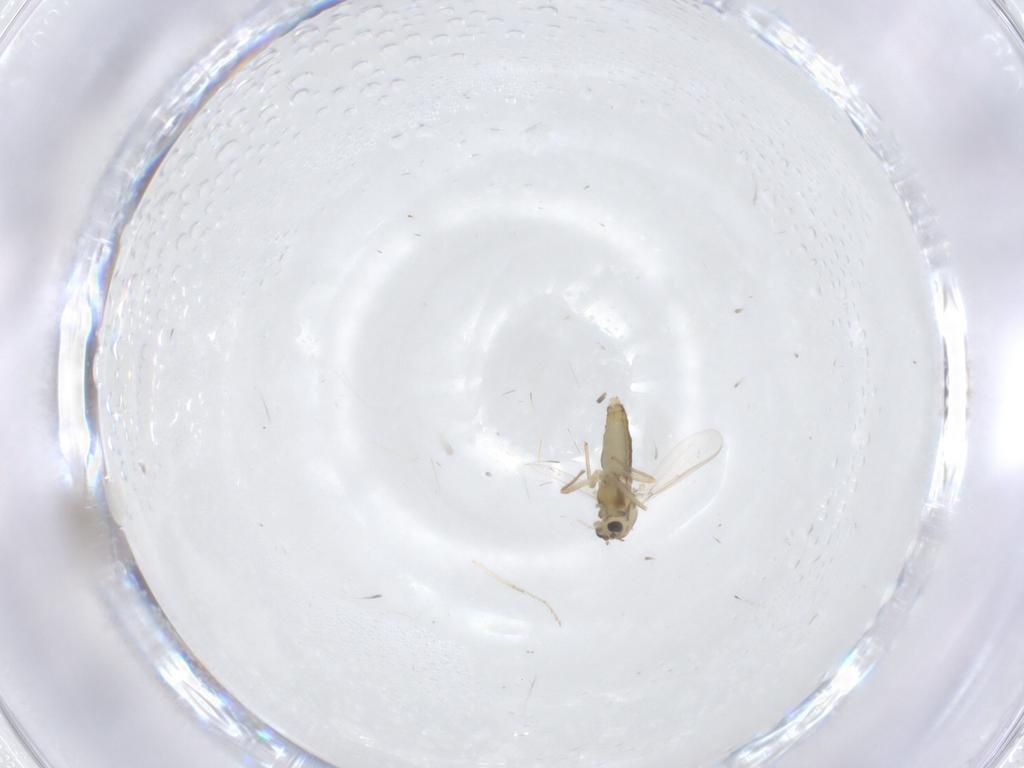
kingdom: Animalia
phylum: Arthropoda
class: Insecta
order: Diptera
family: Chironomidae
